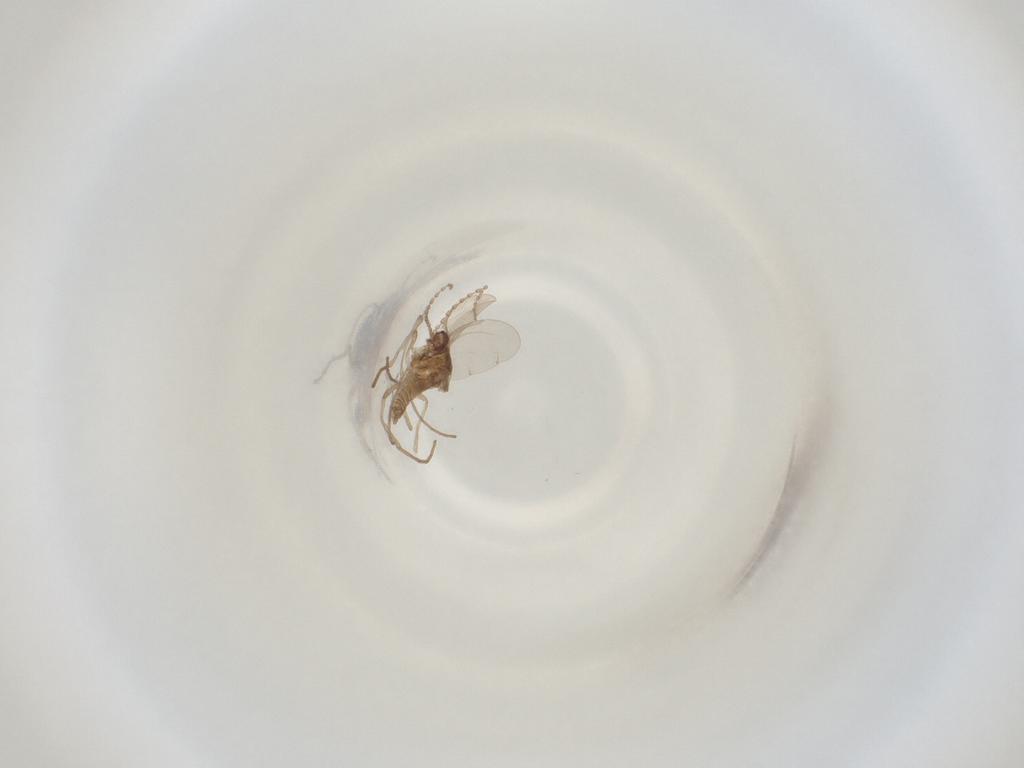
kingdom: Animalia
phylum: Arthropoda
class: Insecta
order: Diptera
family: Cecidomyiidae
